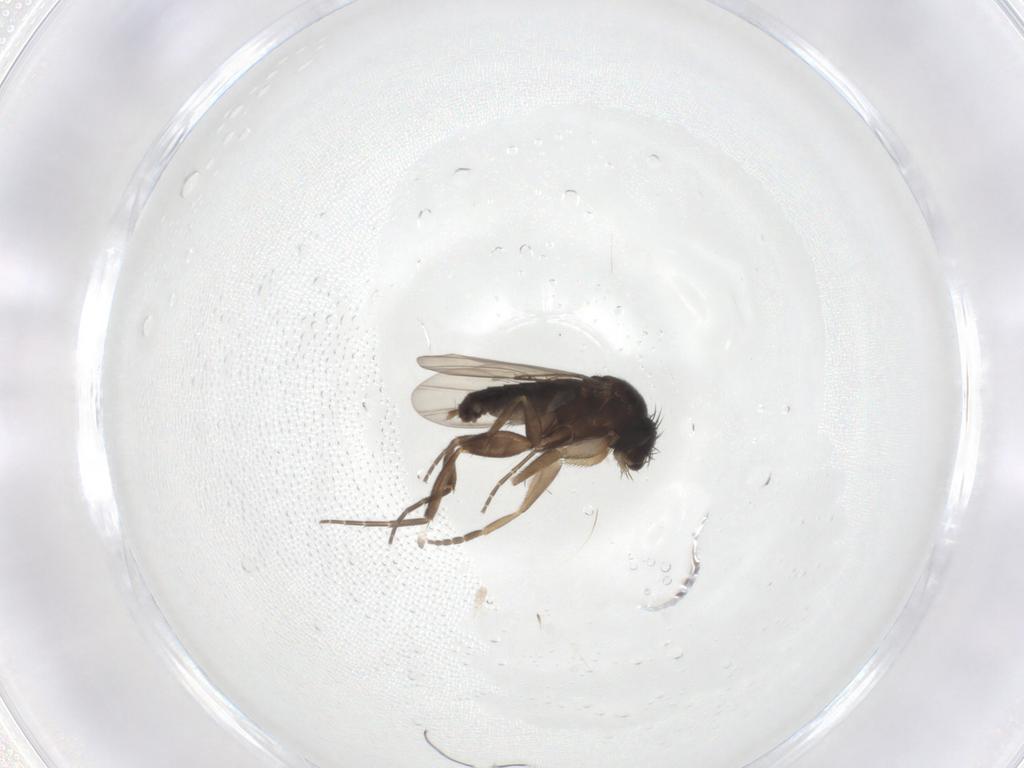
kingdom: Animalia
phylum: Arthropoda
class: Insecta
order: Diptera
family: Phoridae
